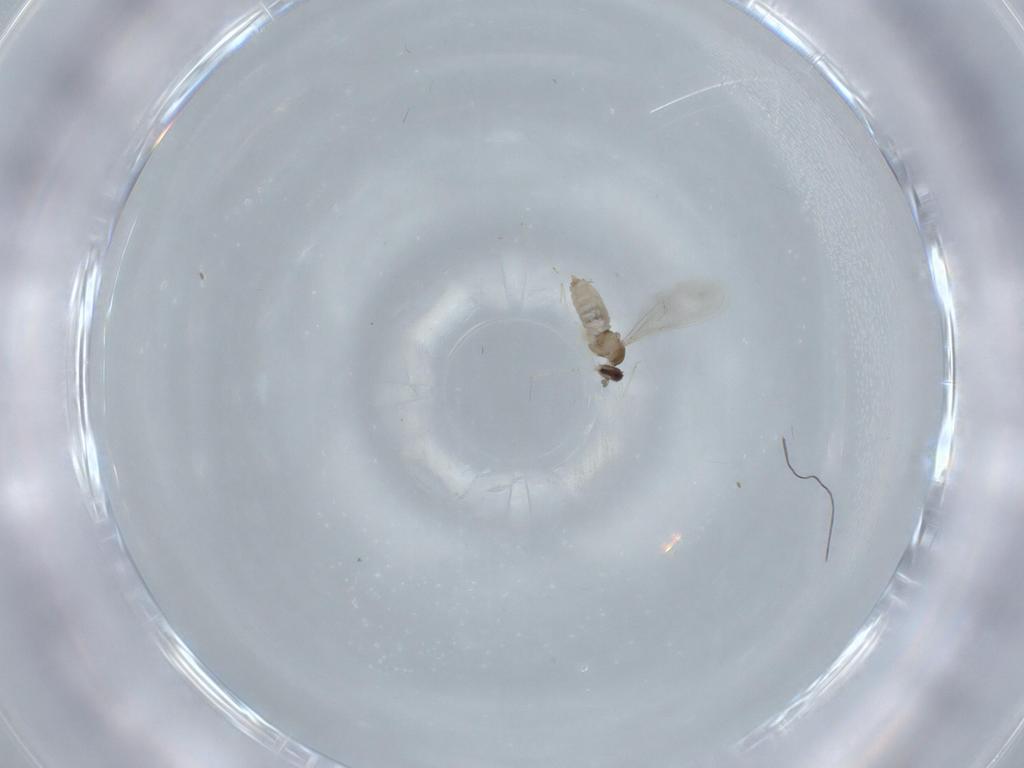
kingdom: Animalia
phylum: Arthropoda
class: Insecta
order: Diptera
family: Cecidomyiidae
